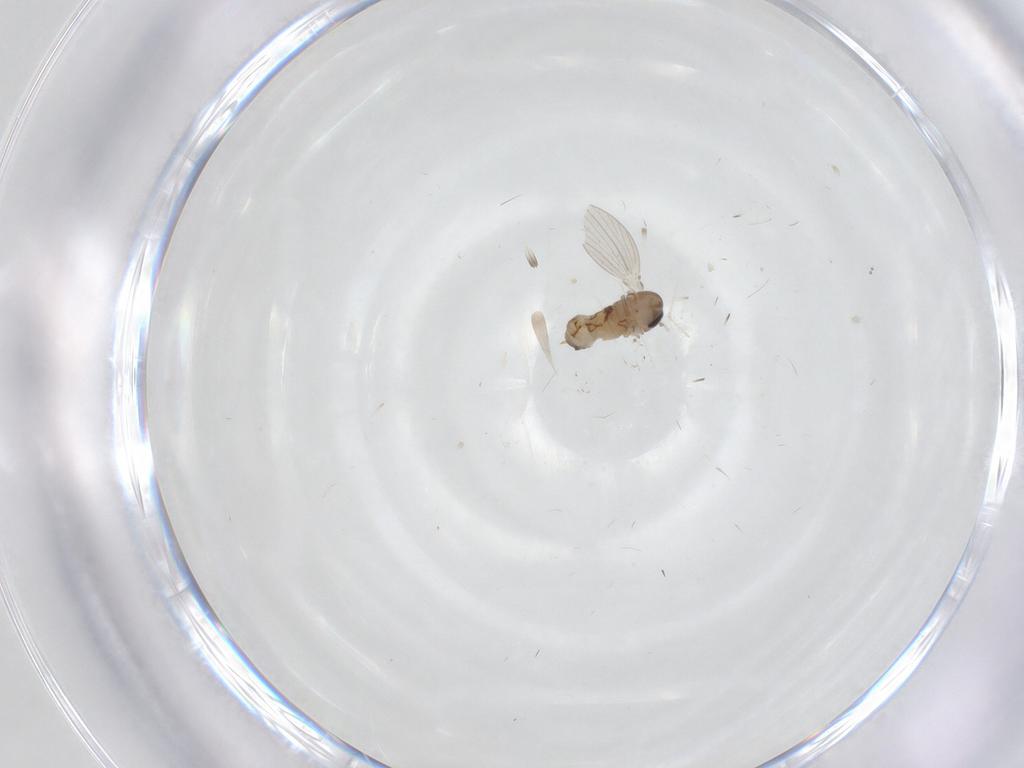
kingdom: Animalia
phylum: Arthropoda
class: Insecta
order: Diptera
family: Psychodidae
